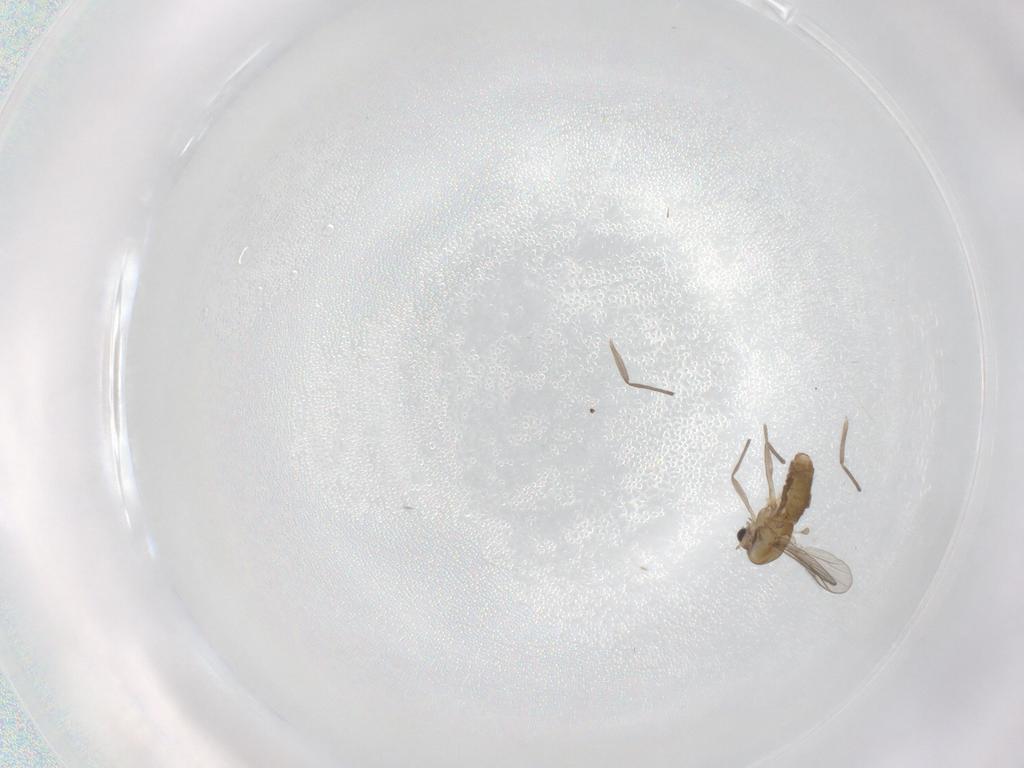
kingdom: Animalia
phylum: Arthropoda
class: Insecta
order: Diptera
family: Chironomidae
